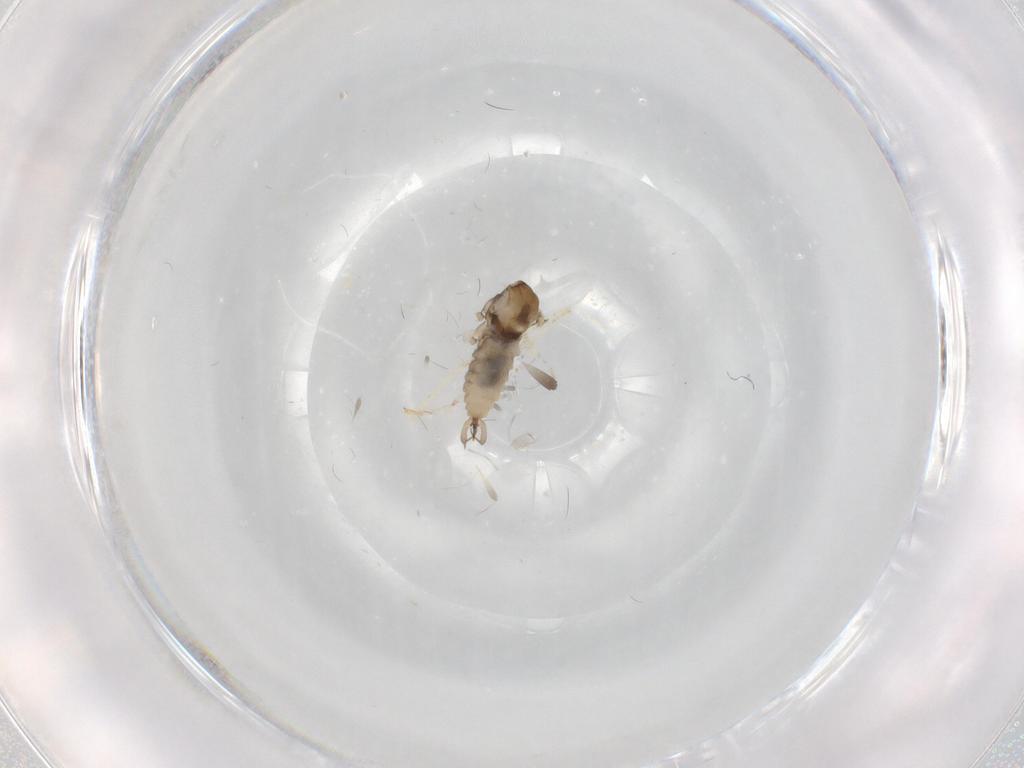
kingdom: Animalia
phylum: Arthropoda
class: Insecta
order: Diptera
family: Cecidomyiidae
